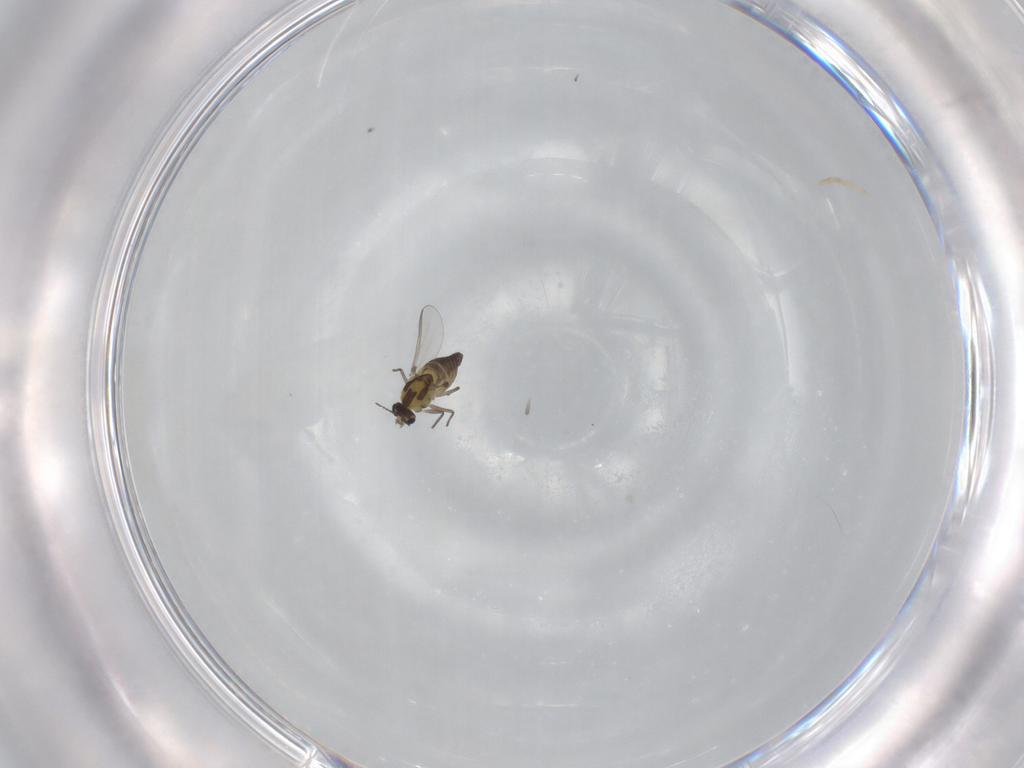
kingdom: Animalia
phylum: Arthropoda
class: Insecta
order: Diptera
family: Chironomidae
